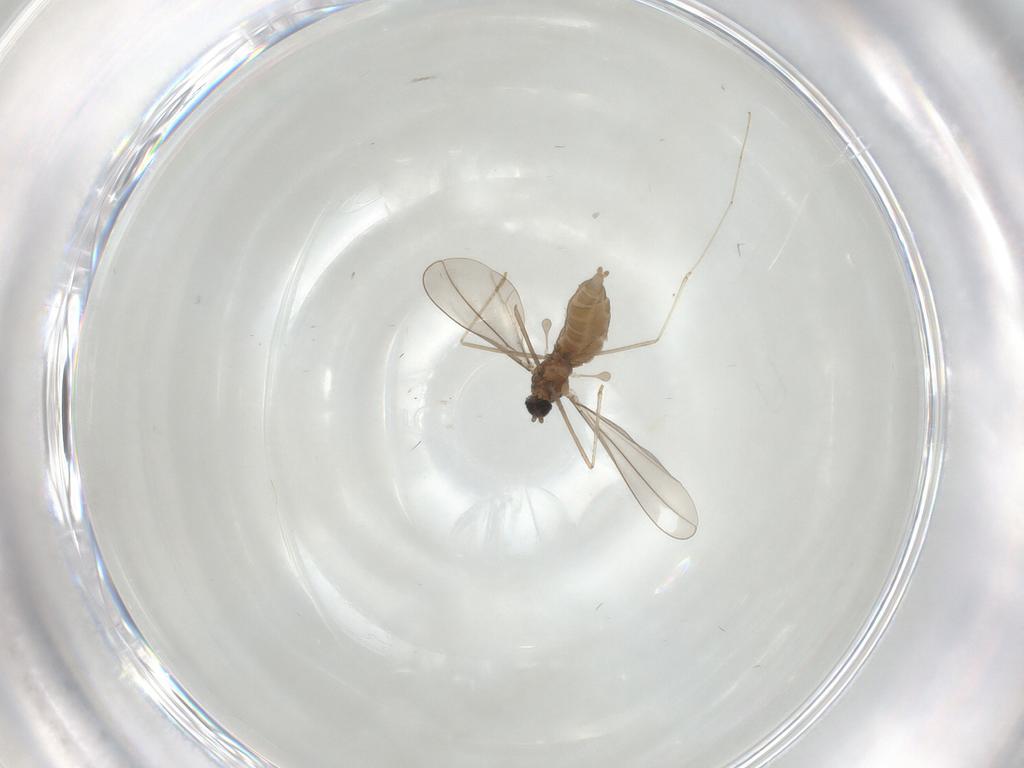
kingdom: Animalia
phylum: Arthropoda
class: Insecta
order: Diptera
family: Cecidomyiidae
